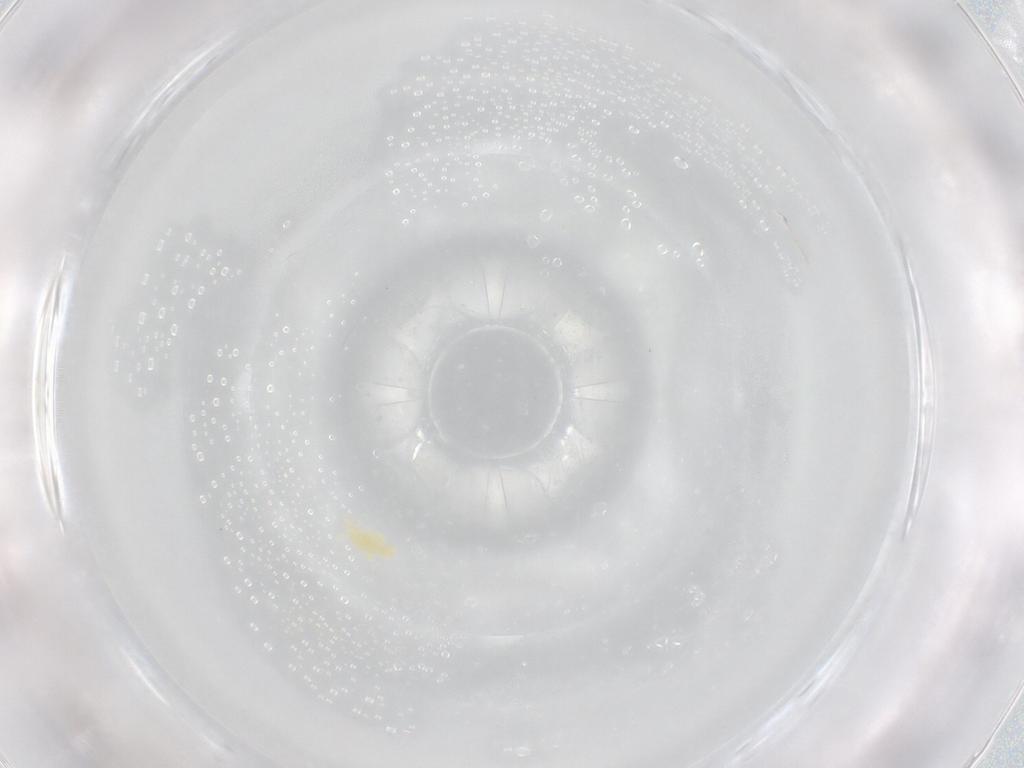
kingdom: Animalia
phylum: Arthropoda
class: Arachnida
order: Trombidiformes
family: Eupodidae
